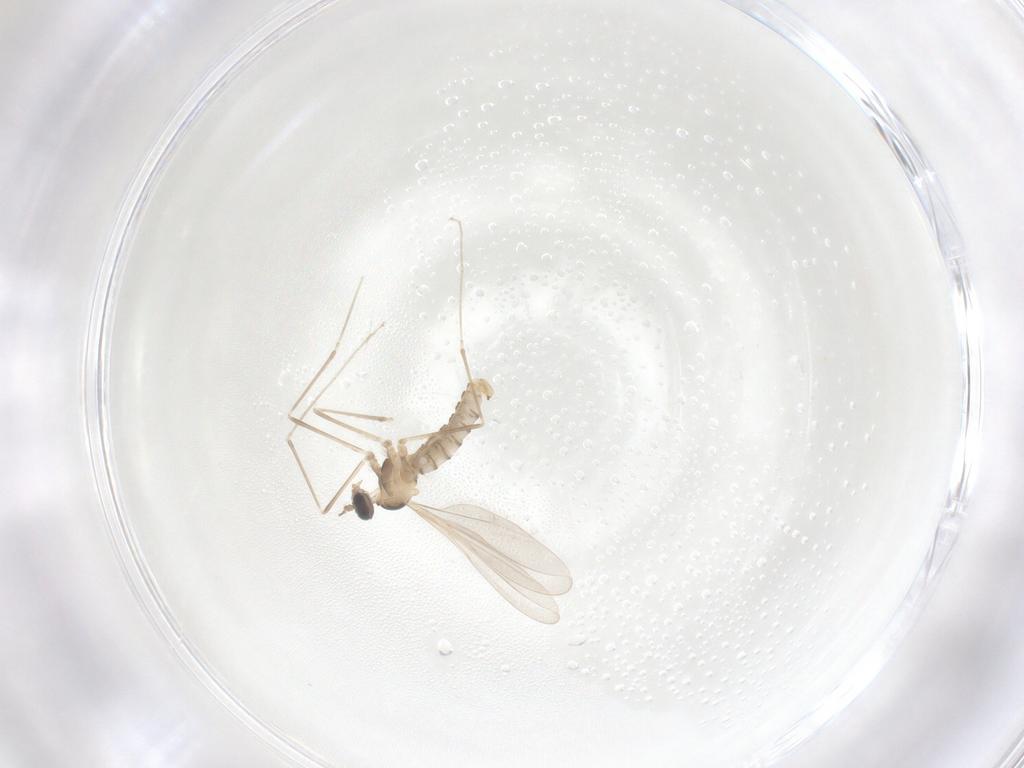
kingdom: Animalia
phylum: Arthropoda
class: Insecta
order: Diptera
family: Cecidomyiidae
